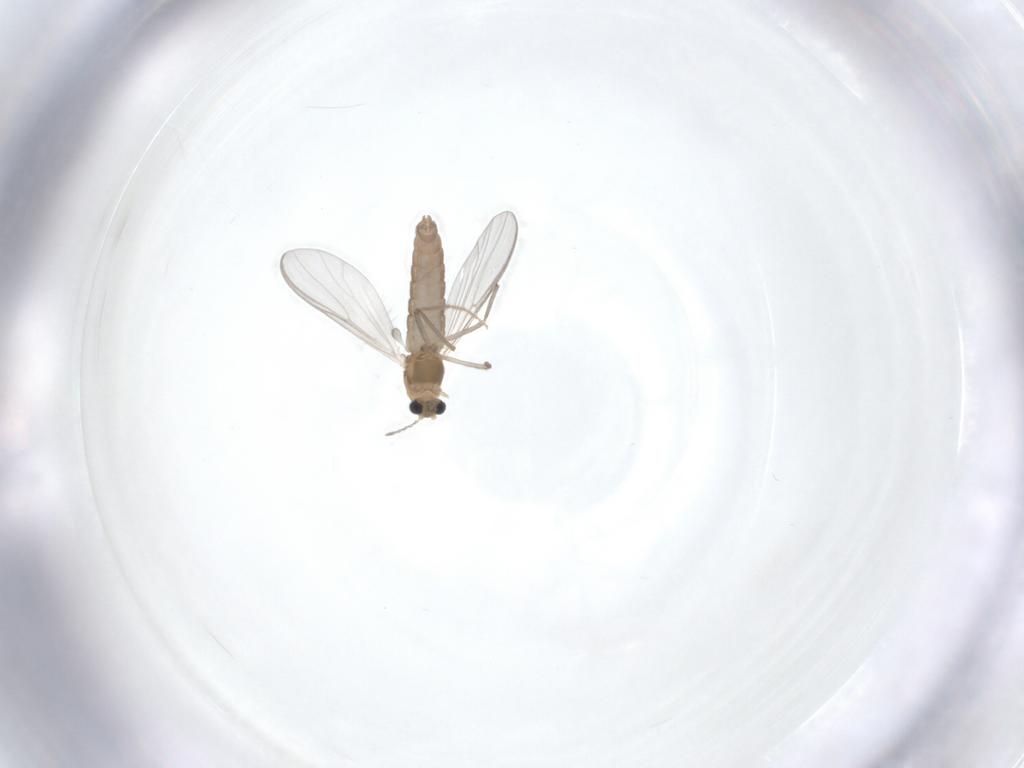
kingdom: Animalia
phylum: Arthropoda
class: Insecta
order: Diptera
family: Chironomidae
